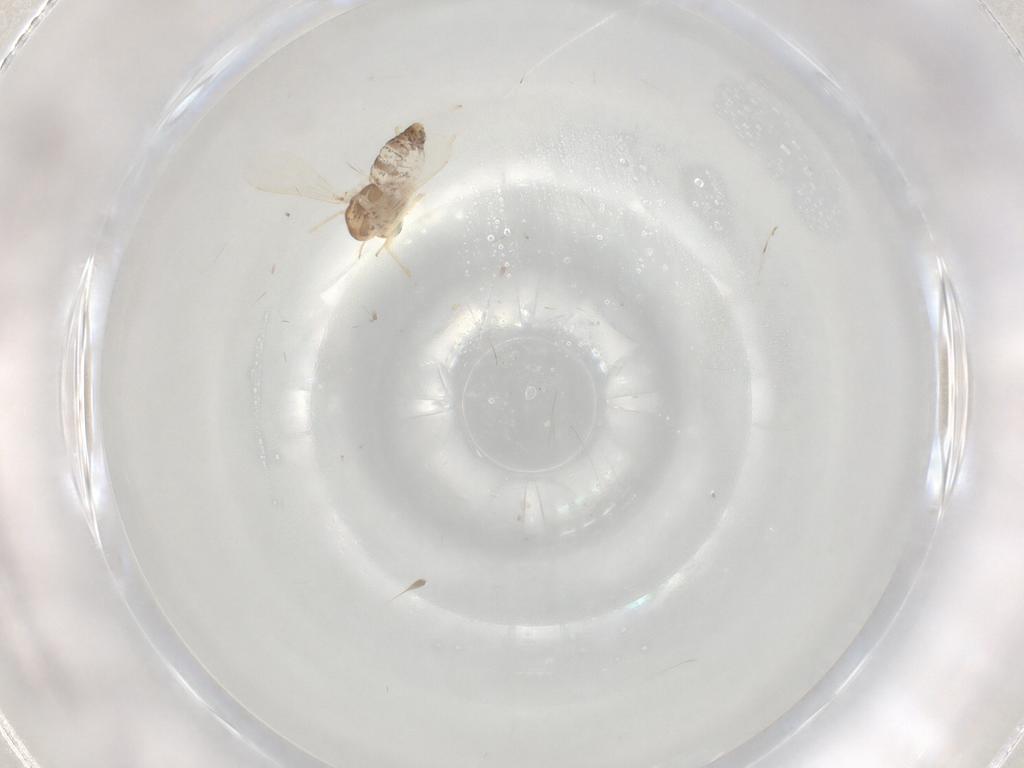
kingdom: Animalia
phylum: Arthropoda
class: Insecta
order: Diptera
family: Chironomidae
